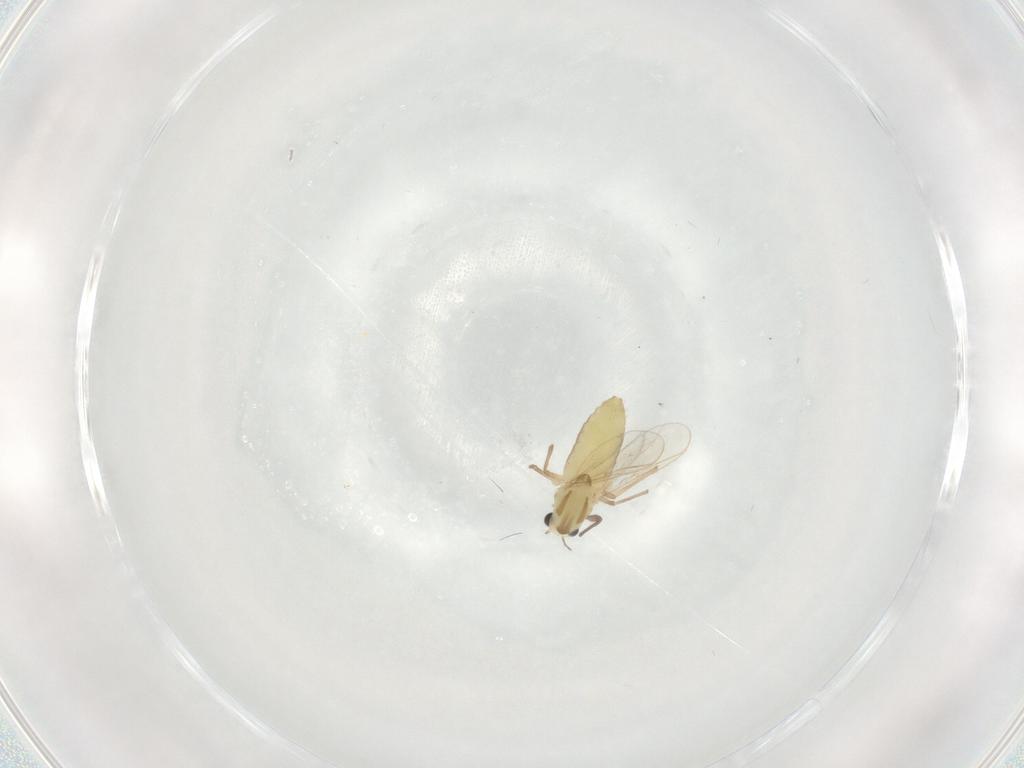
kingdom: Animalia
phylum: Arthropoda
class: Insecta
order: Diptera
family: Chironomidae
